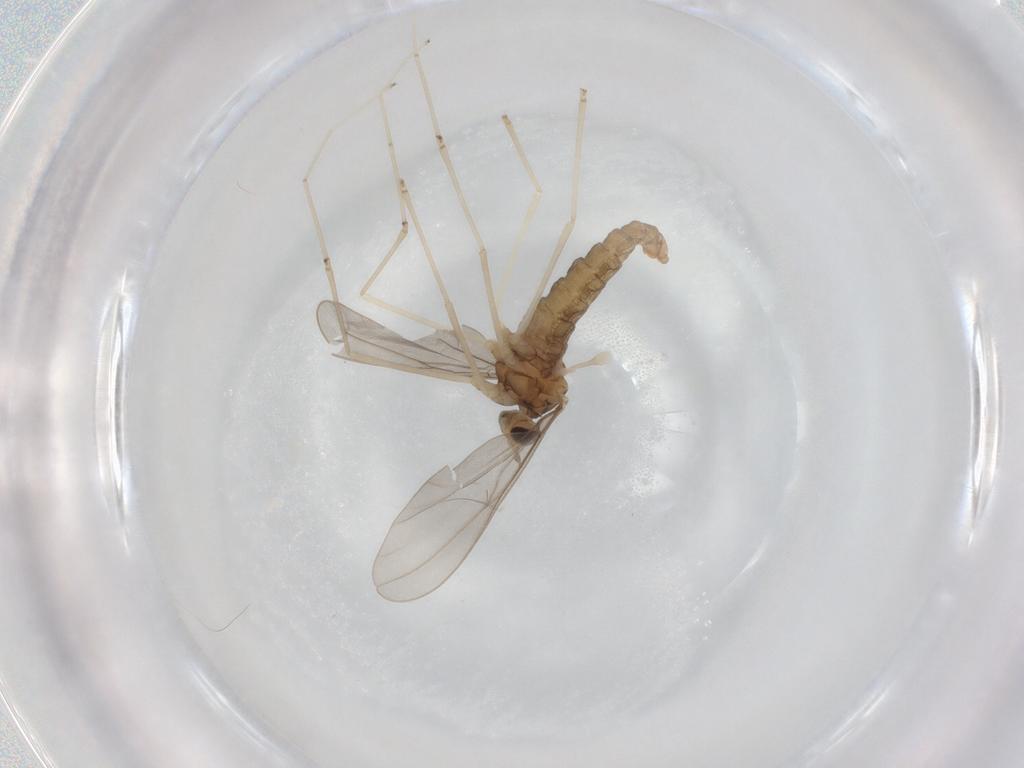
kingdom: Animalia
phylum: Arthropoda
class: Insecta
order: Diptera
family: Cecidomyiidae
